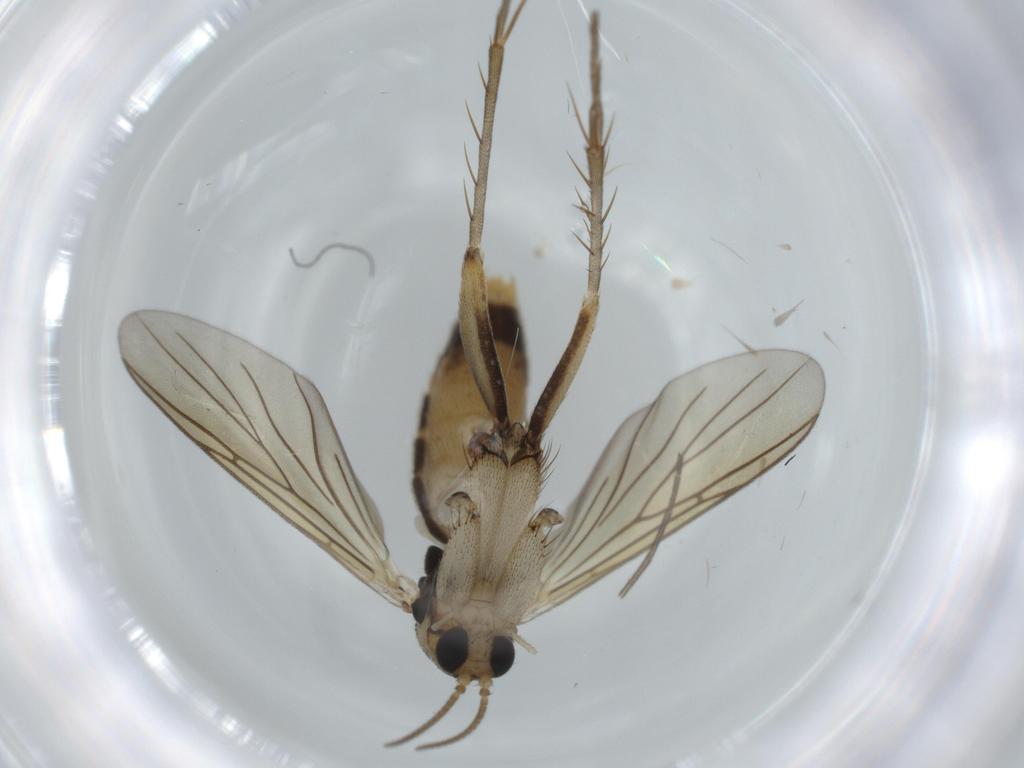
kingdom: Animalia
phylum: Arthropoda
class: Insecta
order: Diptera
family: Mycetophilidae
